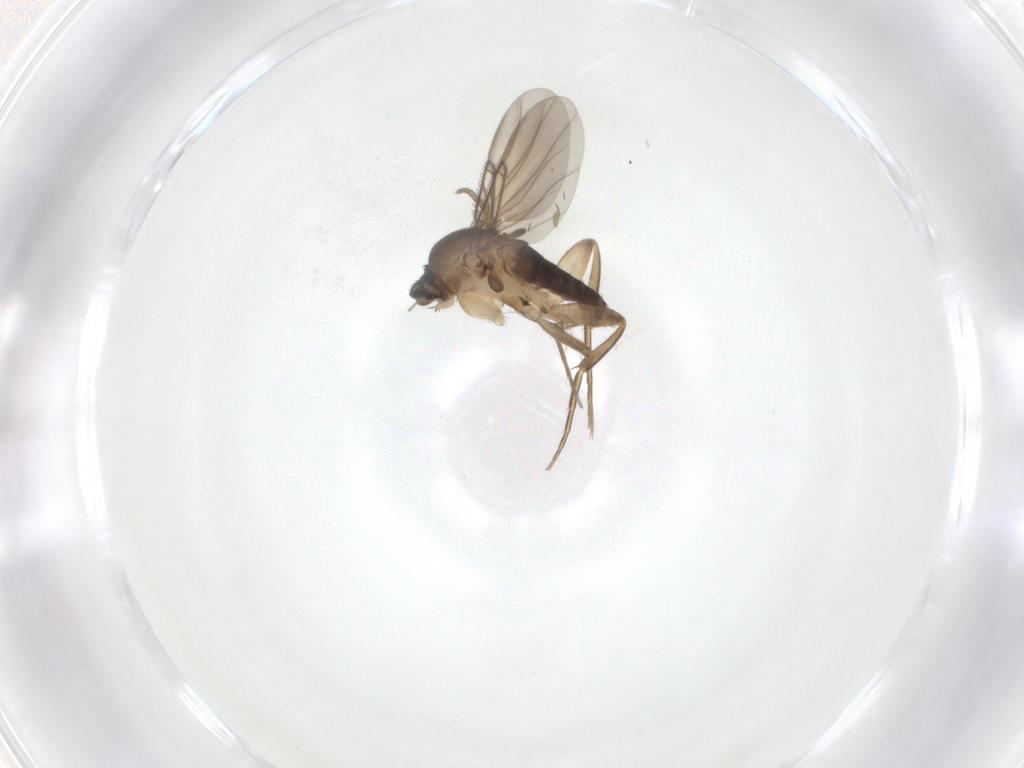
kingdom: Animalia
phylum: Arthropoda
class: Insecta
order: Diptera
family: Phoridae
